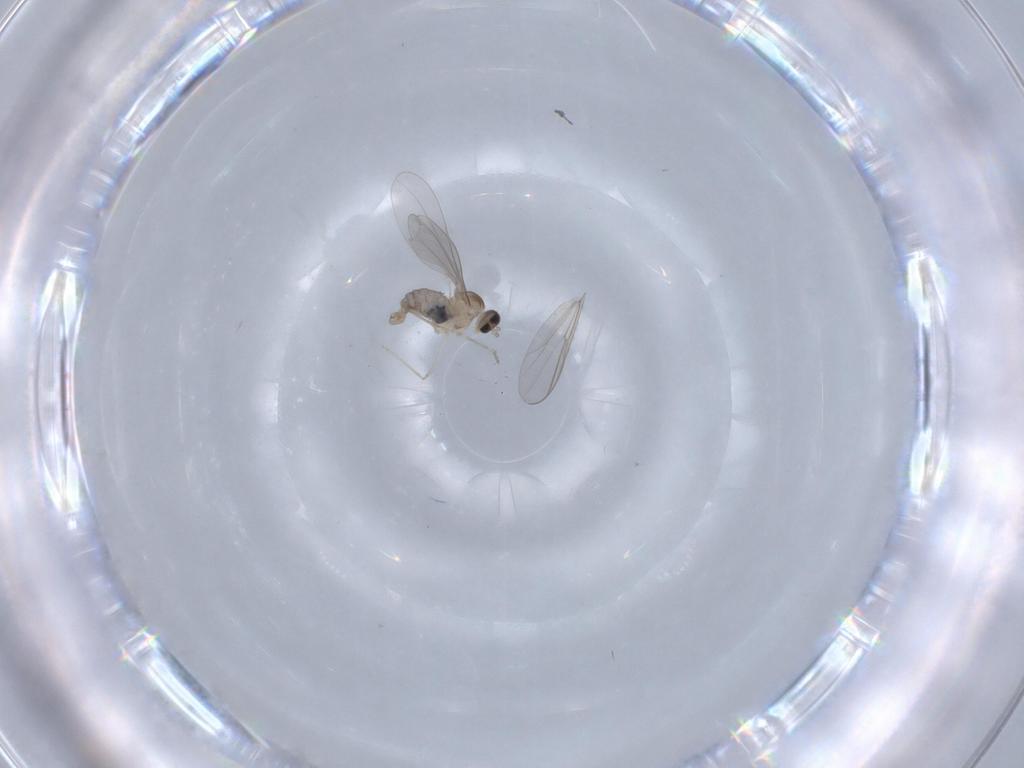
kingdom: Animalia
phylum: Arthropoda
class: Insecta
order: Diptera
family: Cecidomyiidae
